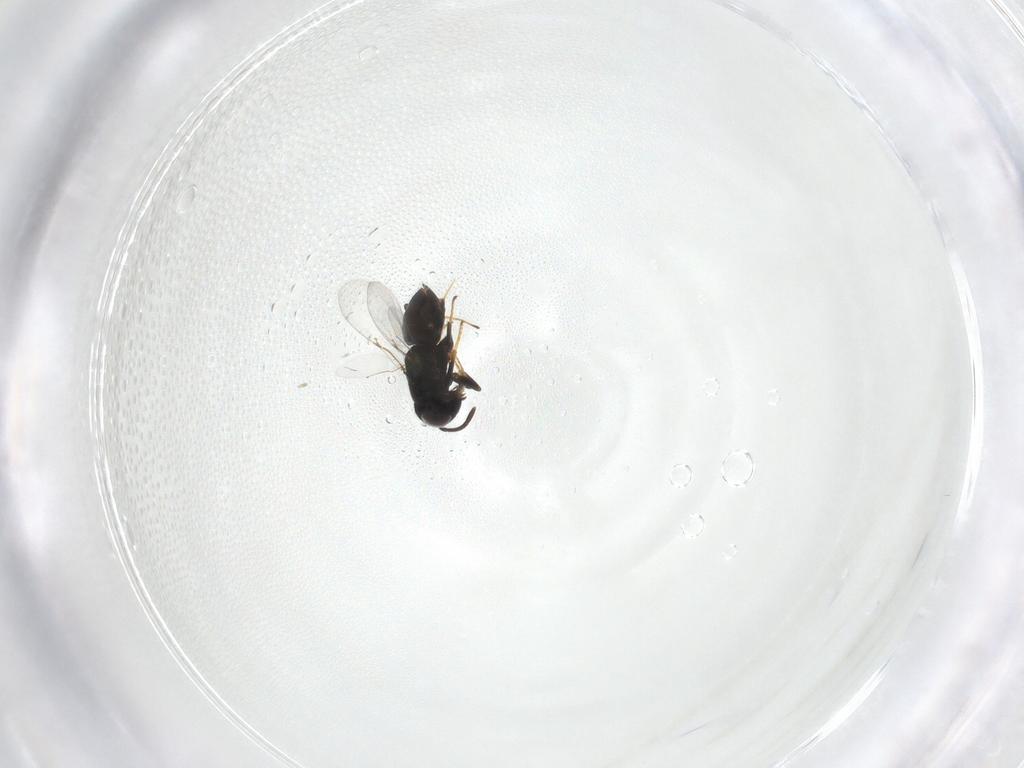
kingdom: Animalia
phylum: Arthropoda
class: Insecta
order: Hymenoptera
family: Encyrtidae
